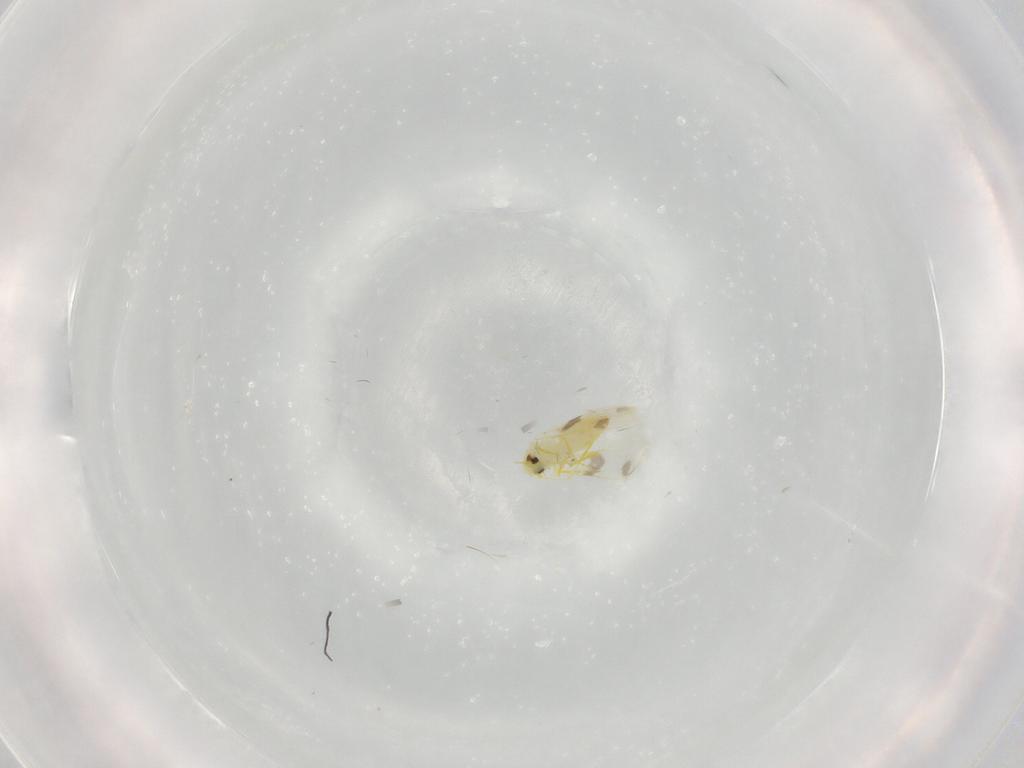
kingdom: Animalia
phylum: Arthropoda
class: Insecta
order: Hemiptera
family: Aleyrodidae
